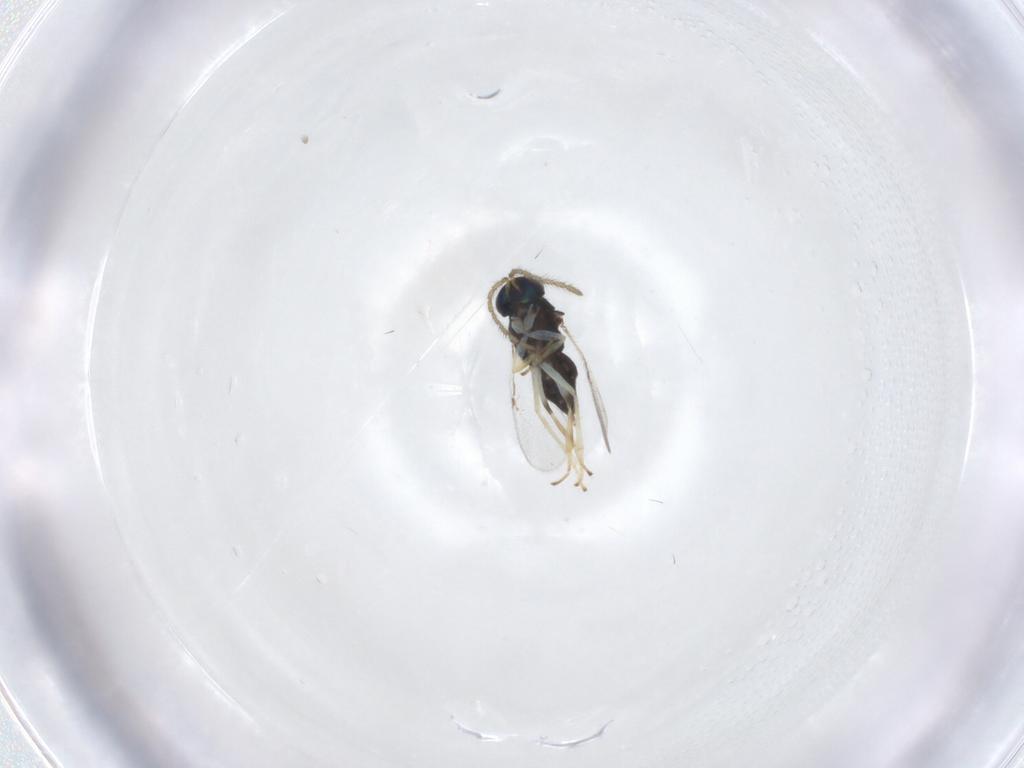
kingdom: Animalia
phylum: Arthropoda
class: Insecta
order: Hymenoptera
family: Encyrtidae
